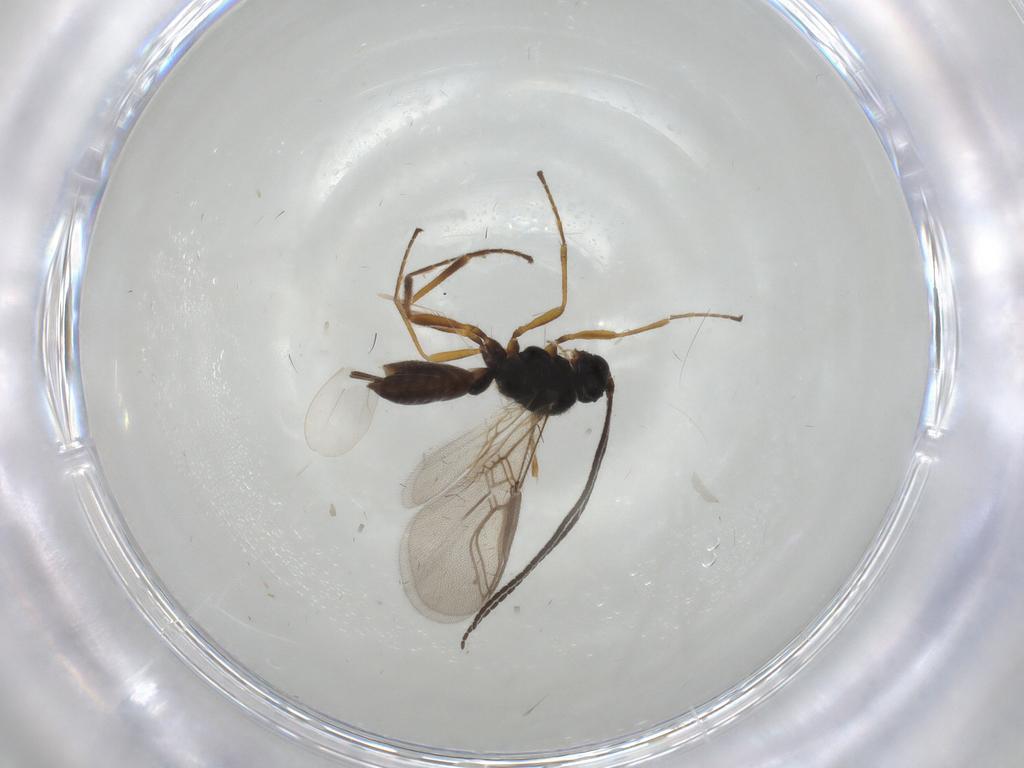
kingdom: Animalia
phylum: Arthropoda
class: Insecta
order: Hymenoptera
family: Braconidae
